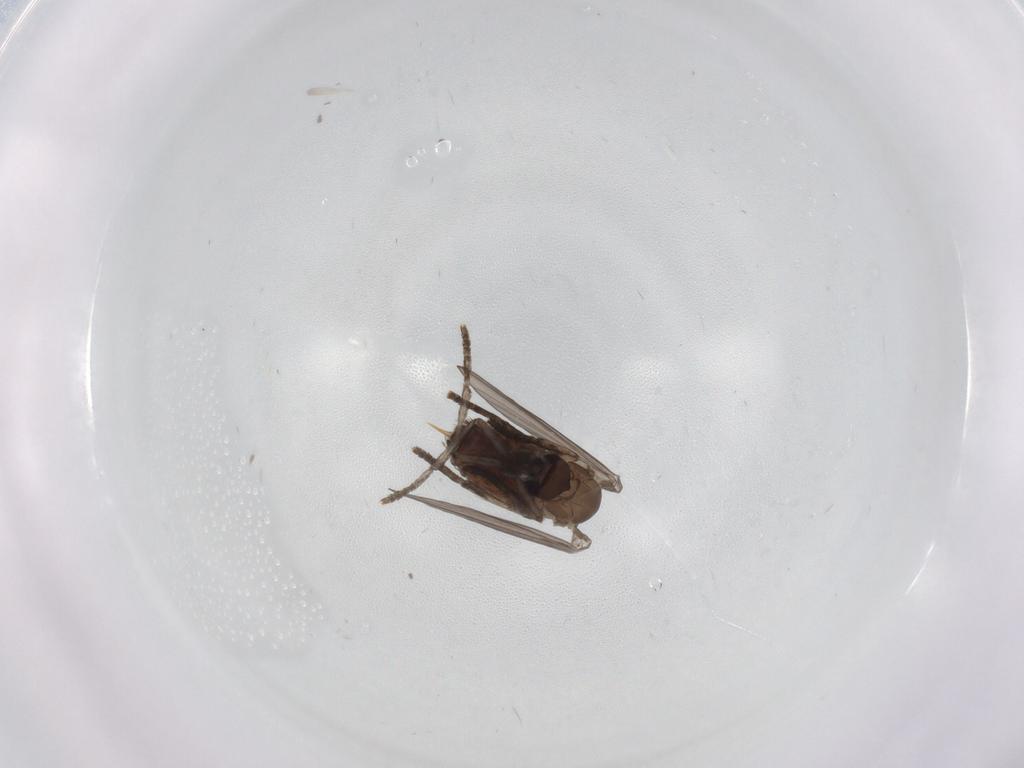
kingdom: Animalia
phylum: Arthropoda
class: Insecta
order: Diptera
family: Psychodidae
